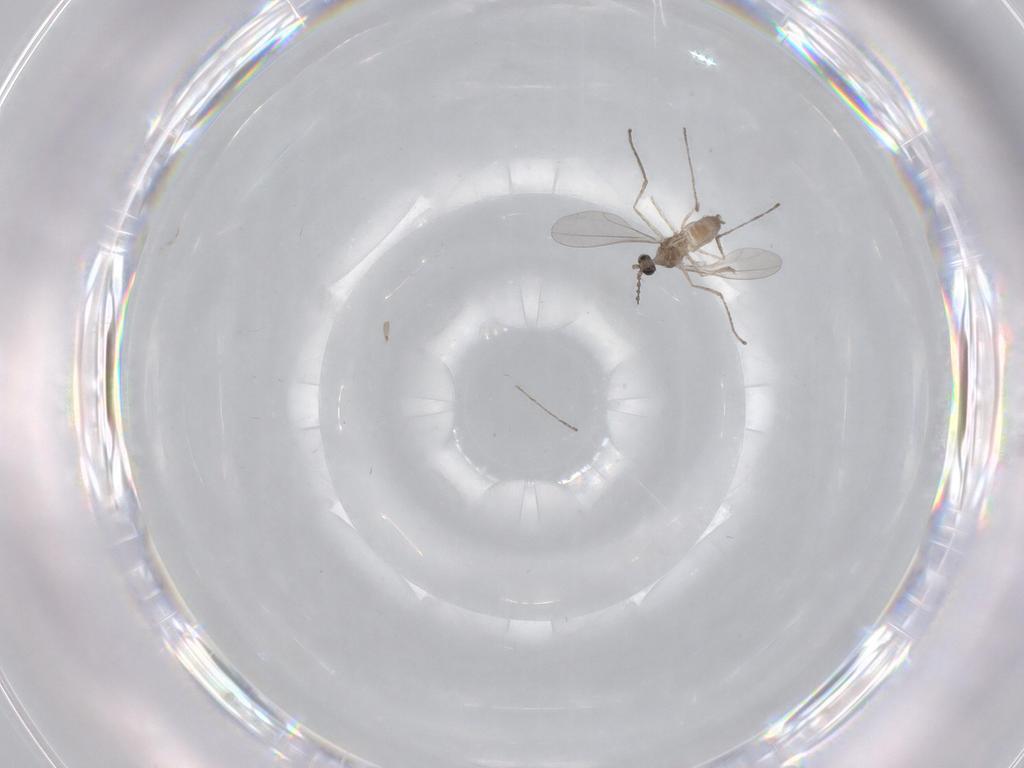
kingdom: Animalia
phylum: Arthropoda
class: Insecta
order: Diptera
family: Cecidomyiidae
